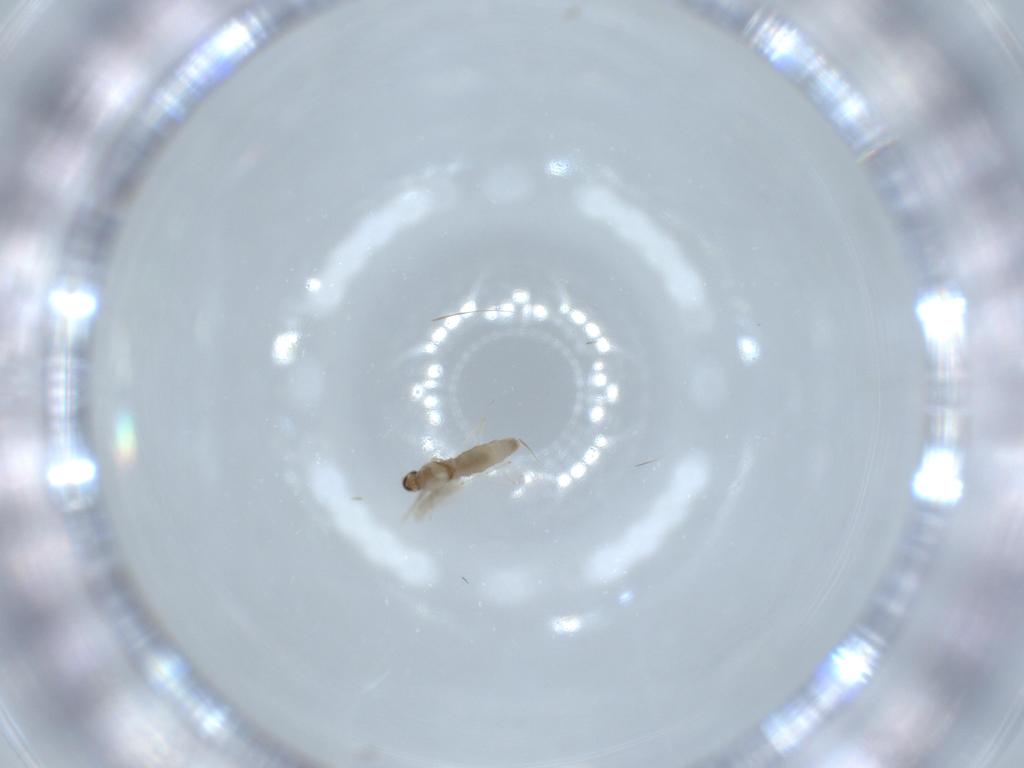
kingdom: Animalia
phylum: Arthropoda
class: Insecta
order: Diptera
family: Cecidomyiidae
